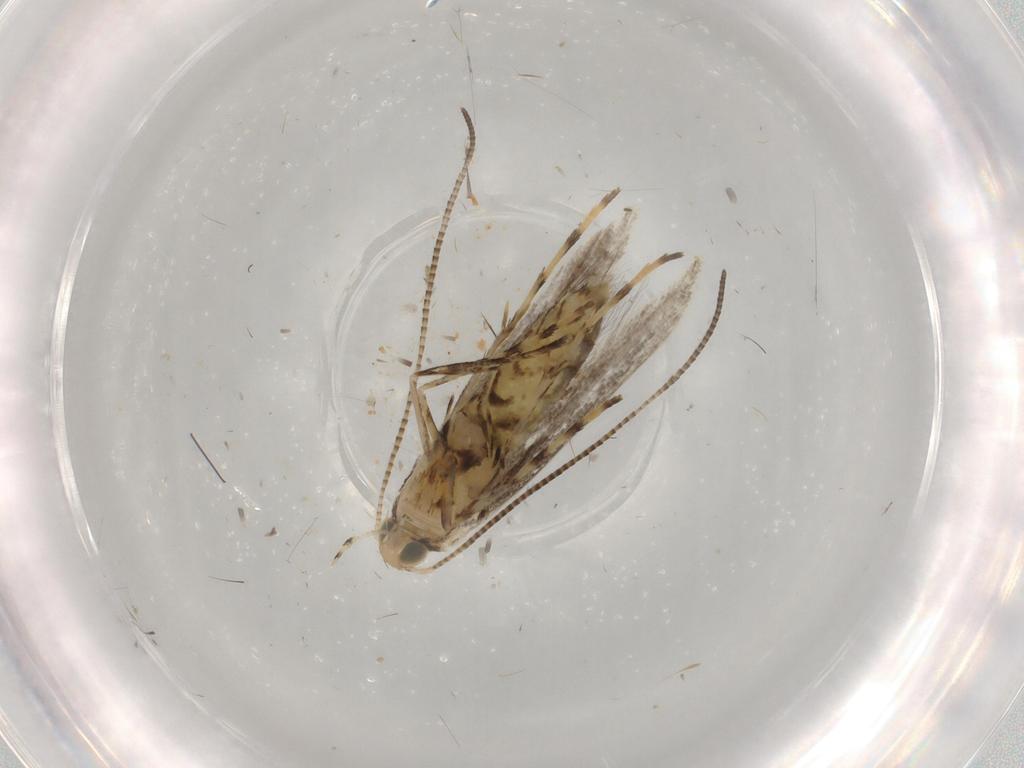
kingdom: Animalia
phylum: Arthropoda
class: Insecta
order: Lepidoptera
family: Gracillariidae
